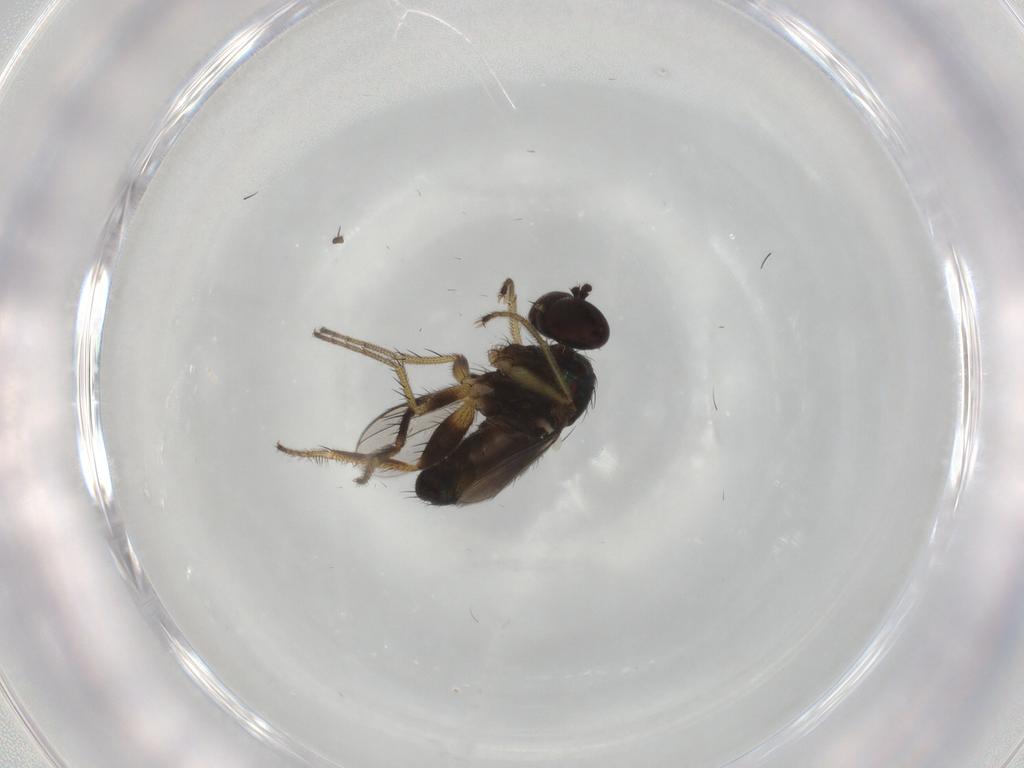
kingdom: Animalia
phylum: Arthropoda
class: Insecta
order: Diptera
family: Dolichopodidae
